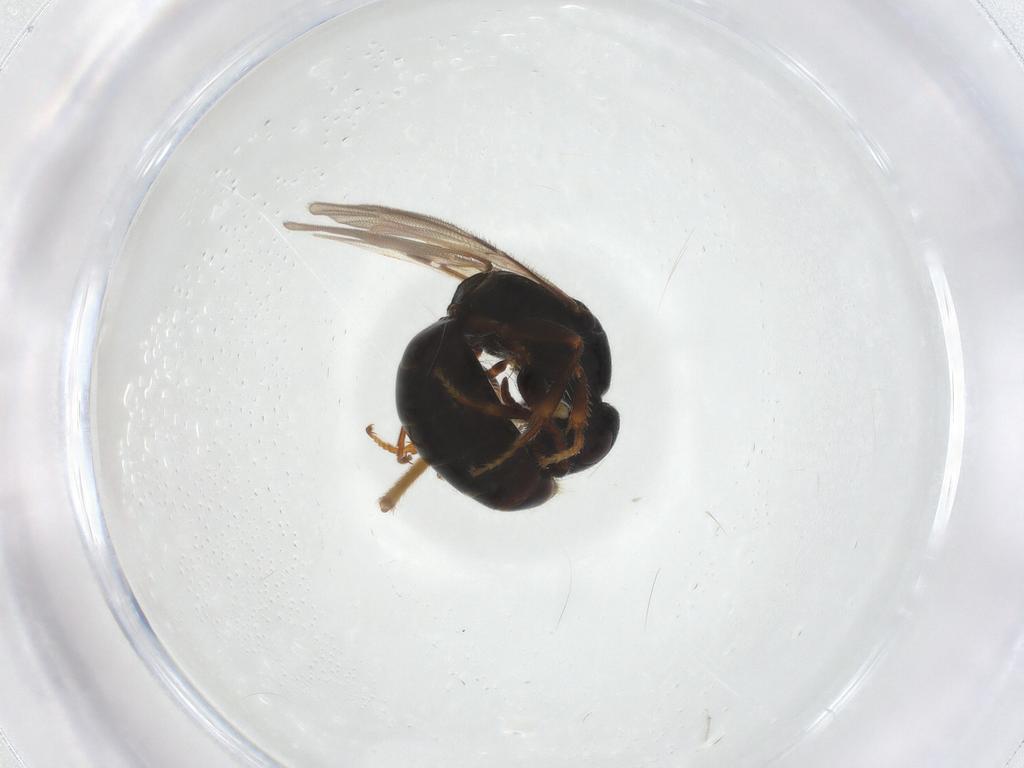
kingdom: Animalia
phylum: Arthropoda
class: Insecta
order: Hymenoptera
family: Bethylidae
